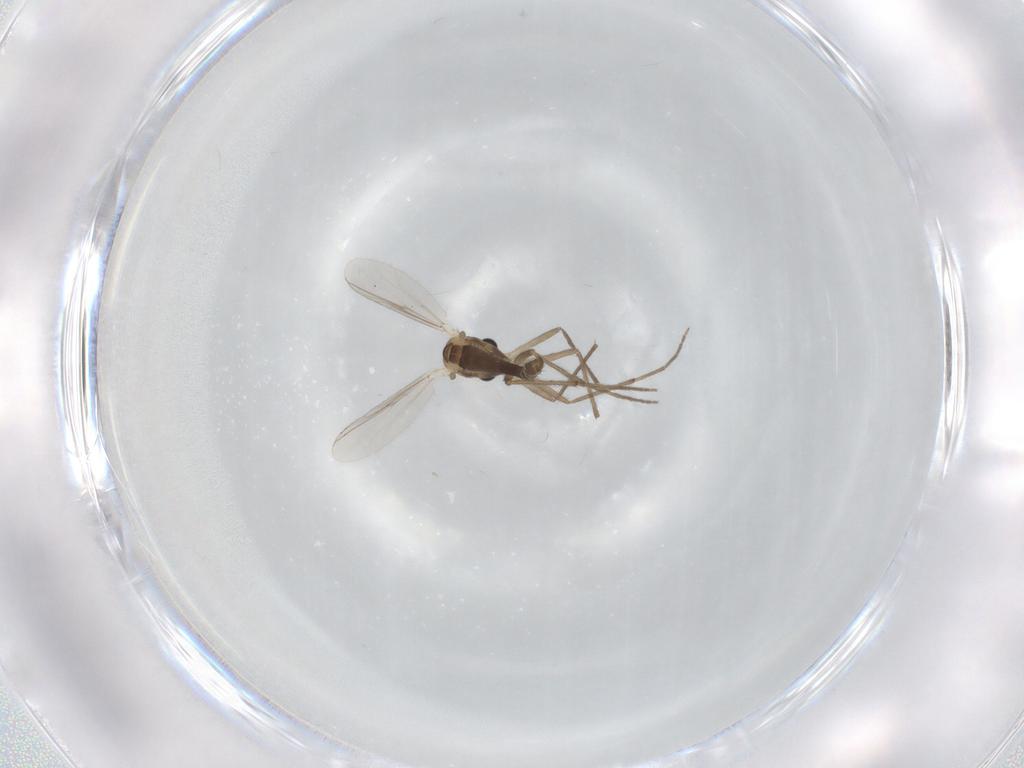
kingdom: Animalia
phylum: Arthropoda
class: Insecta
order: Diptera
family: Chironomidae
